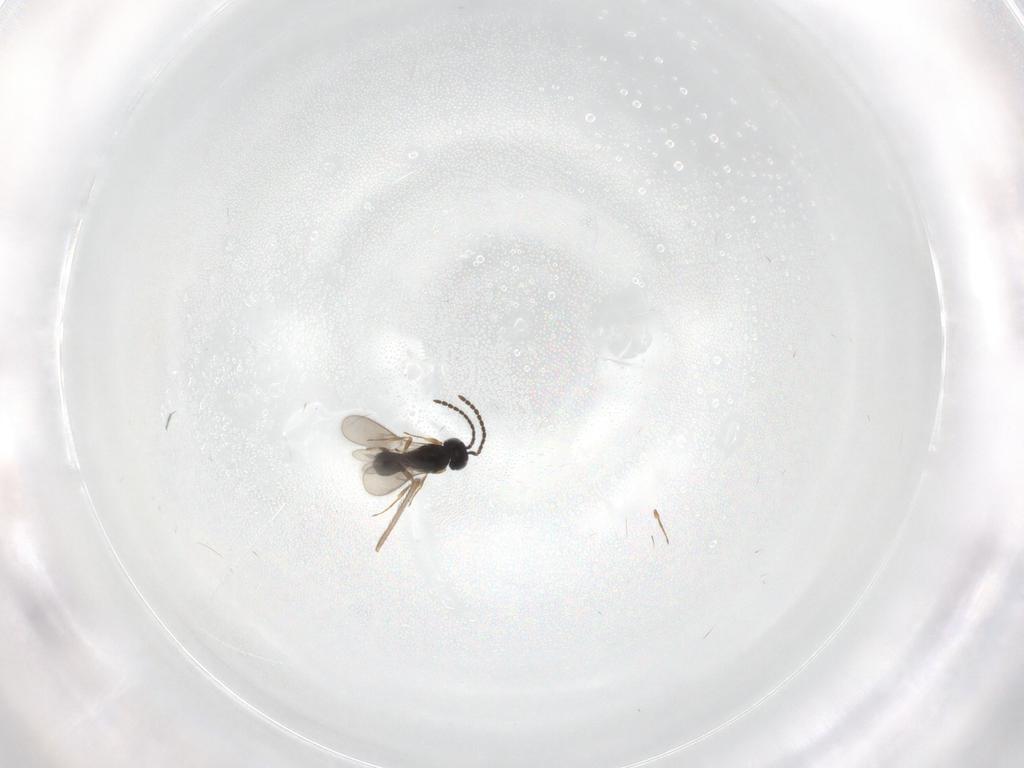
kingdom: Animalia
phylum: Arthropoda
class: Insecta
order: Hymenoptera
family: Scelionidae
